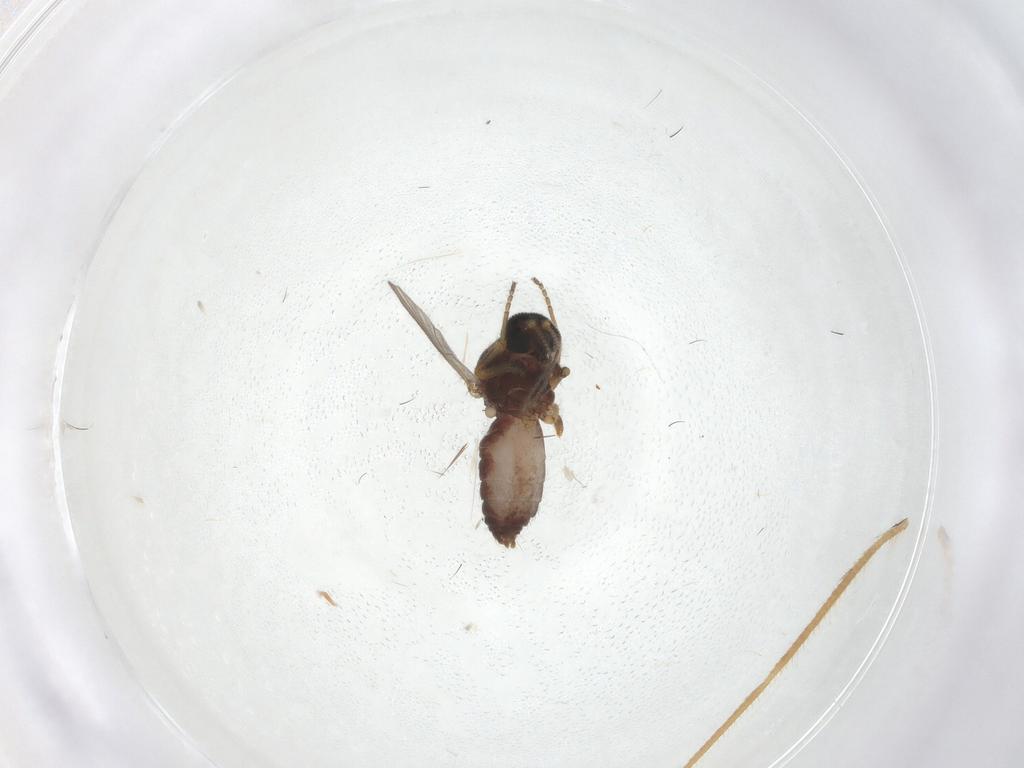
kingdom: Animalia
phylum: Arthropoda
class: Insecta
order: Diptera
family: Ceratopogonidae
